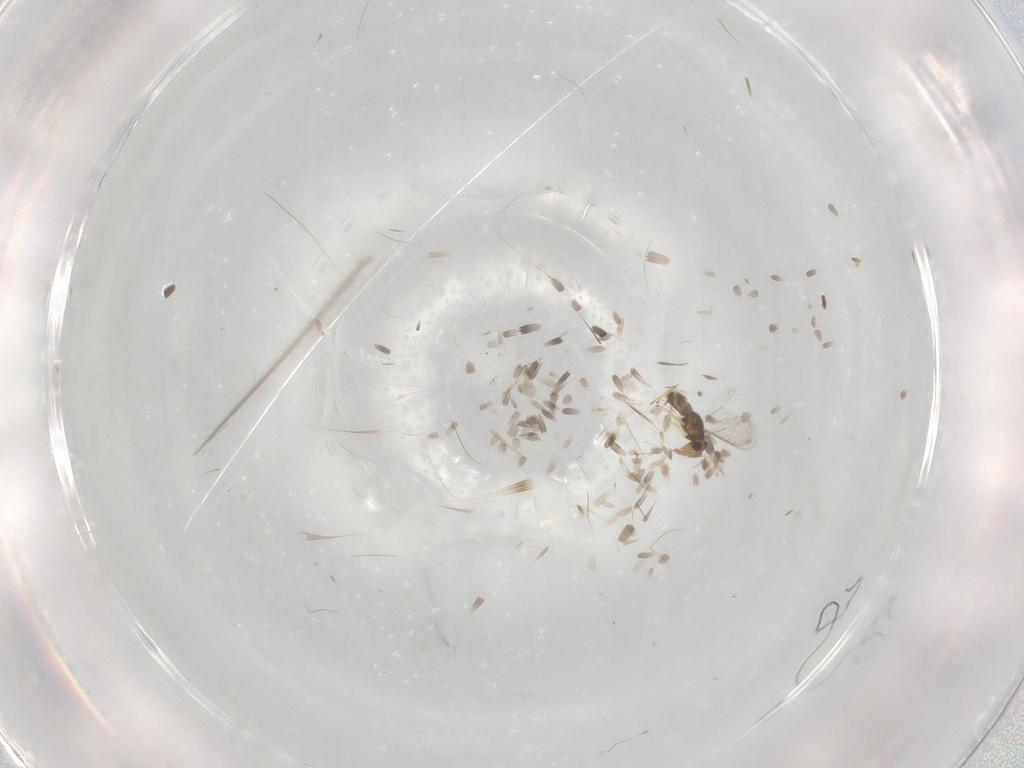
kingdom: Animalia
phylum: Arthropoda
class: Insecta
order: Hymenoptera
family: Aphelinidae
